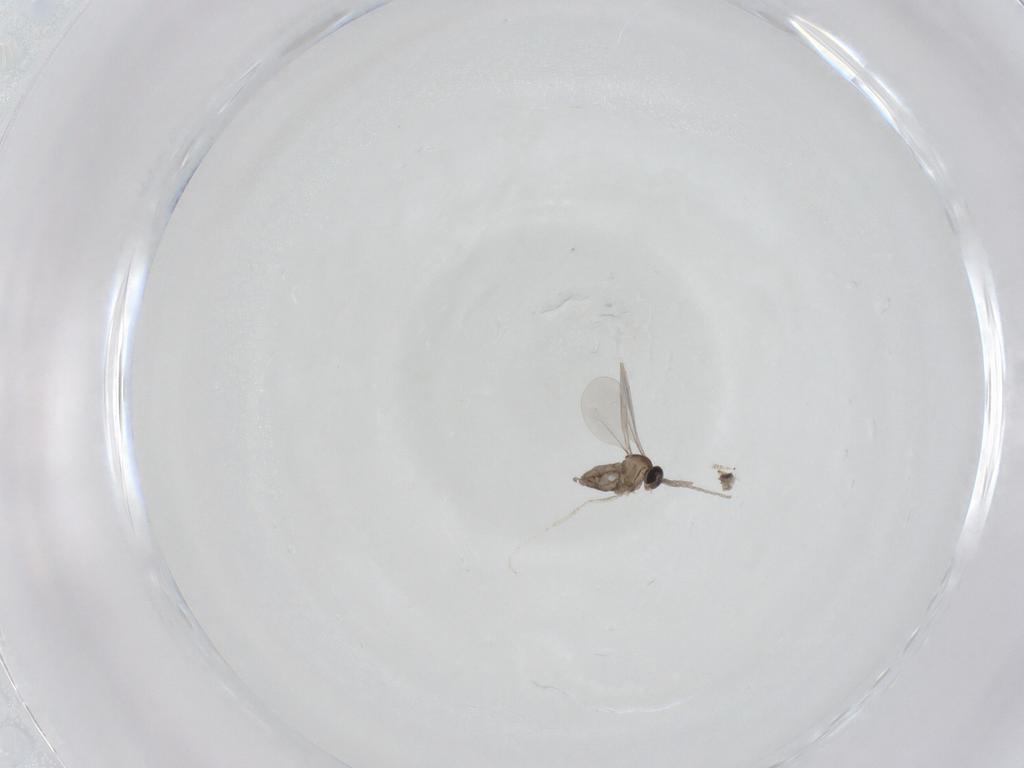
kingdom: Animalia
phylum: Arthropoda
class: Insecta
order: Diptera
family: Cecidomyiidae
